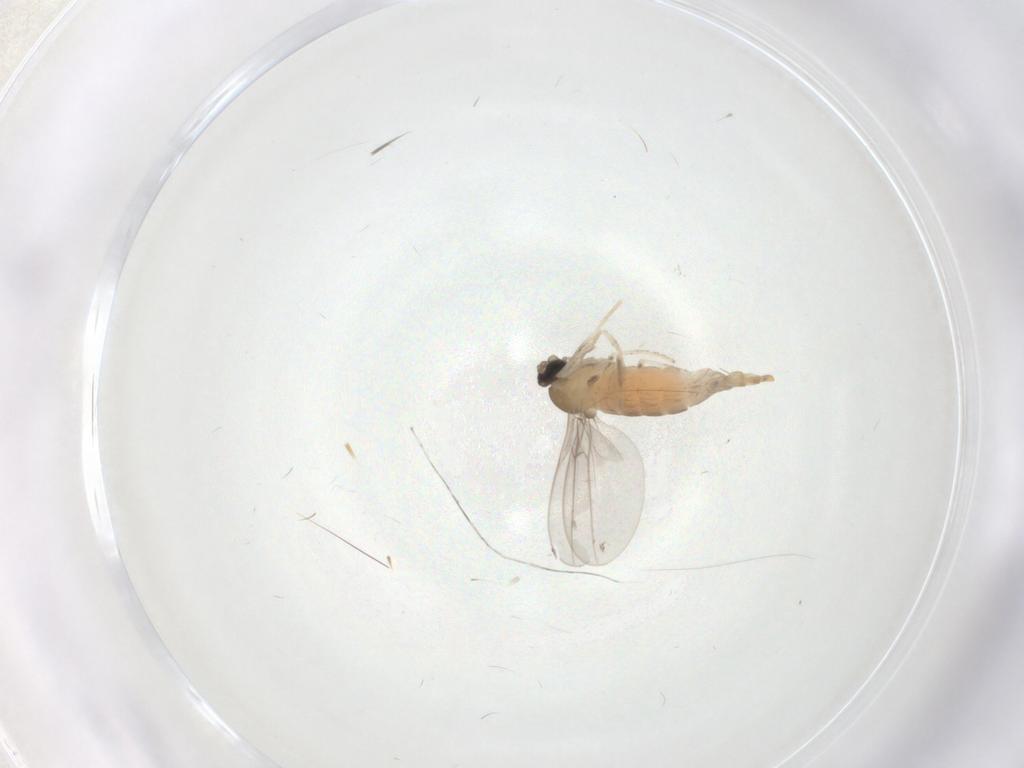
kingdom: Animalia
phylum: Arthropoda
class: Insecta
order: Diptera
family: Cecidomyiidae
